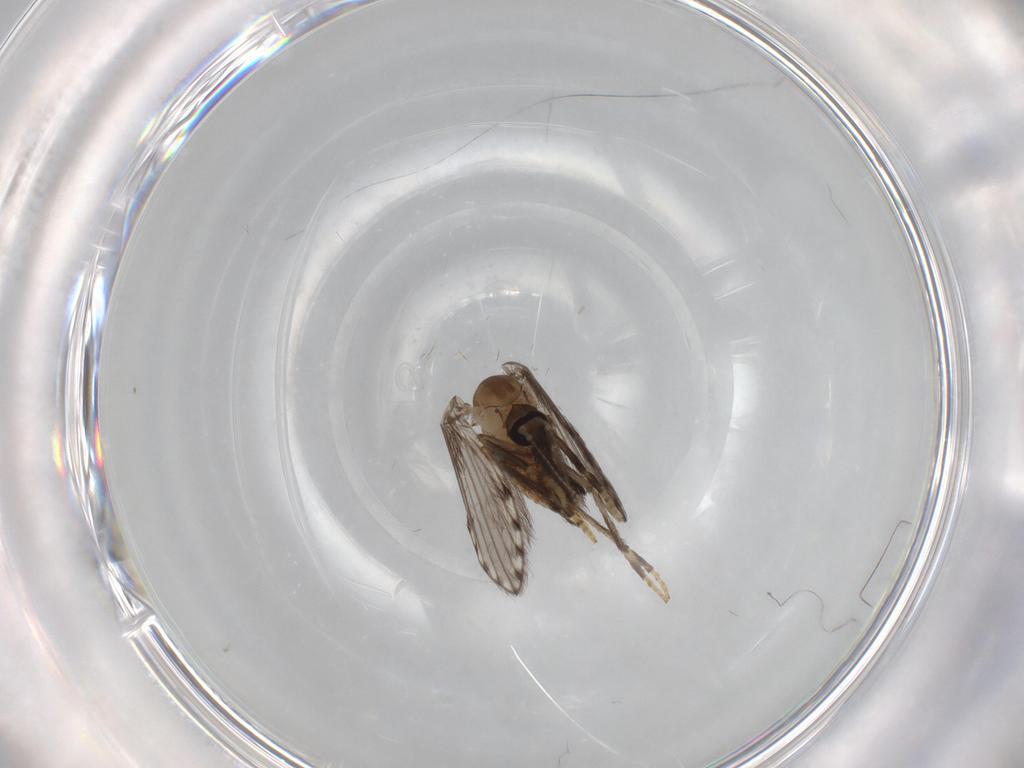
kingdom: Animalia
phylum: Arthropoda
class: Insecta
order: Diptera
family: Psychodidae
